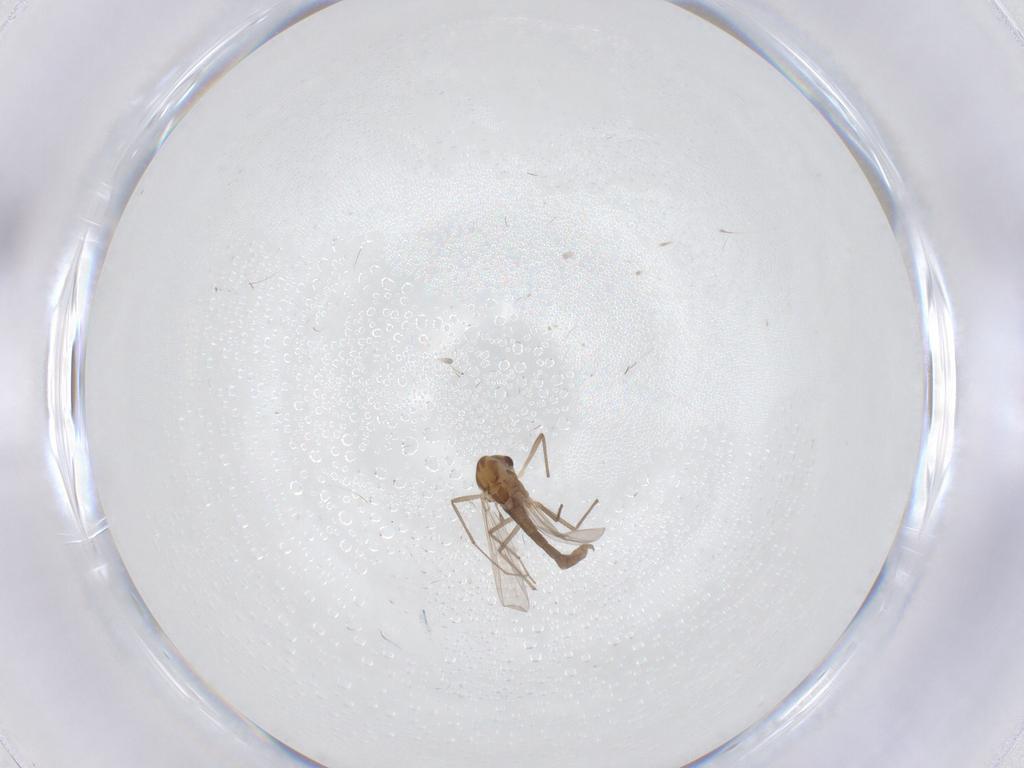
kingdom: Animalia
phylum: Arthropoda
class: Insecta
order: Diptera
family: Chironomidae
